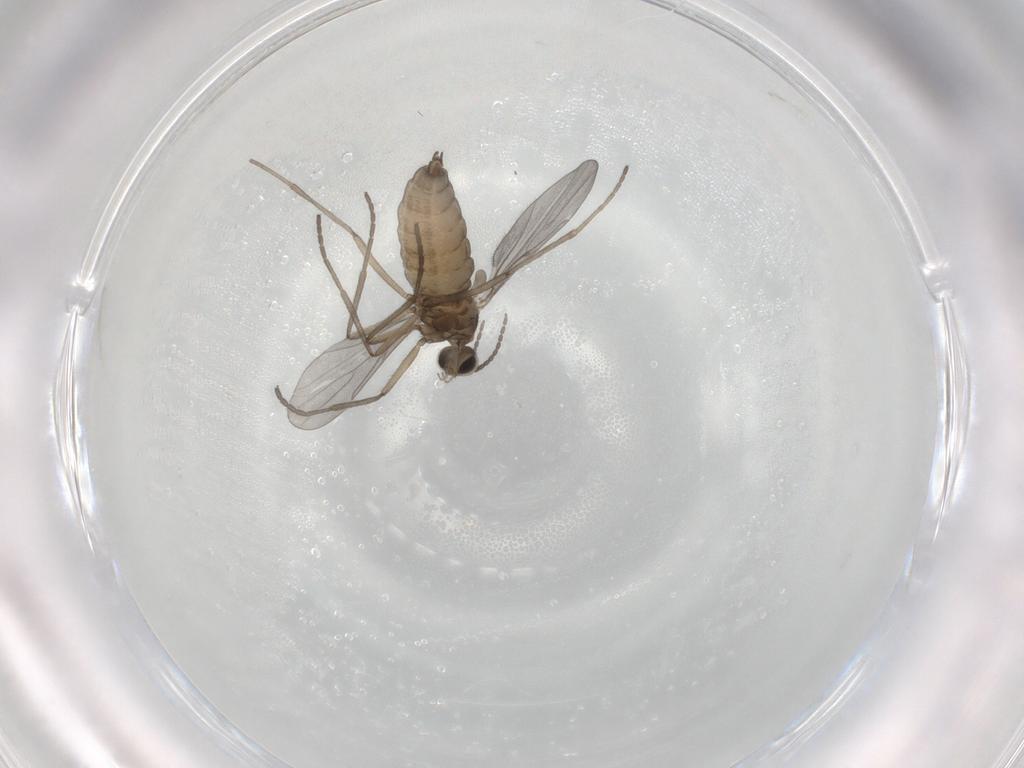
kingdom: Animalia
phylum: Arthropoda
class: Insecta
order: Diptera
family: Cecidomyiidae
